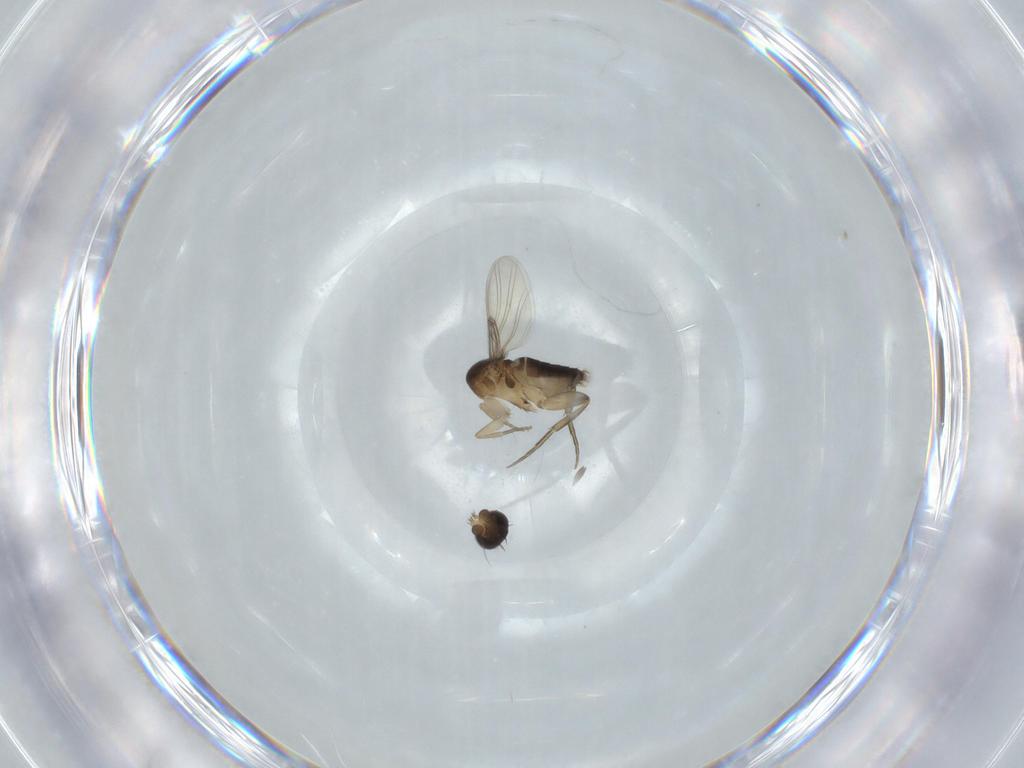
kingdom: Animalia
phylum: Arthropoda
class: Insecta
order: Diptera
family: Phoridae
